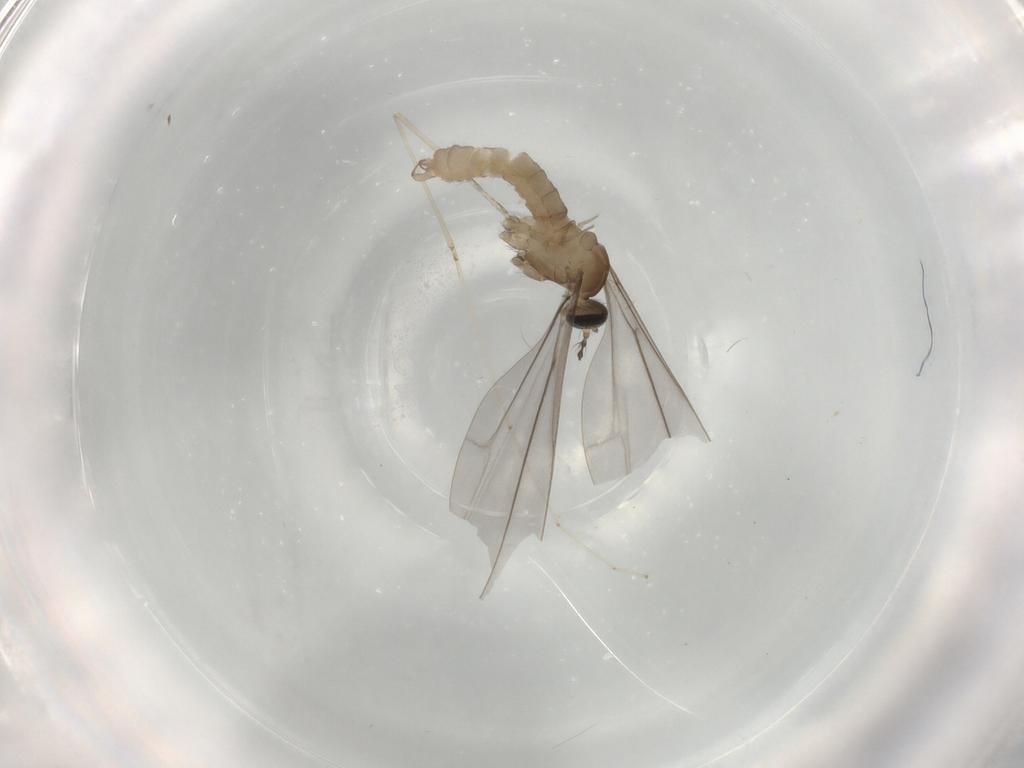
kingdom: Animalia
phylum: Arthropoda
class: Insecta
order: Diptera
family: Cecidomyiidae
